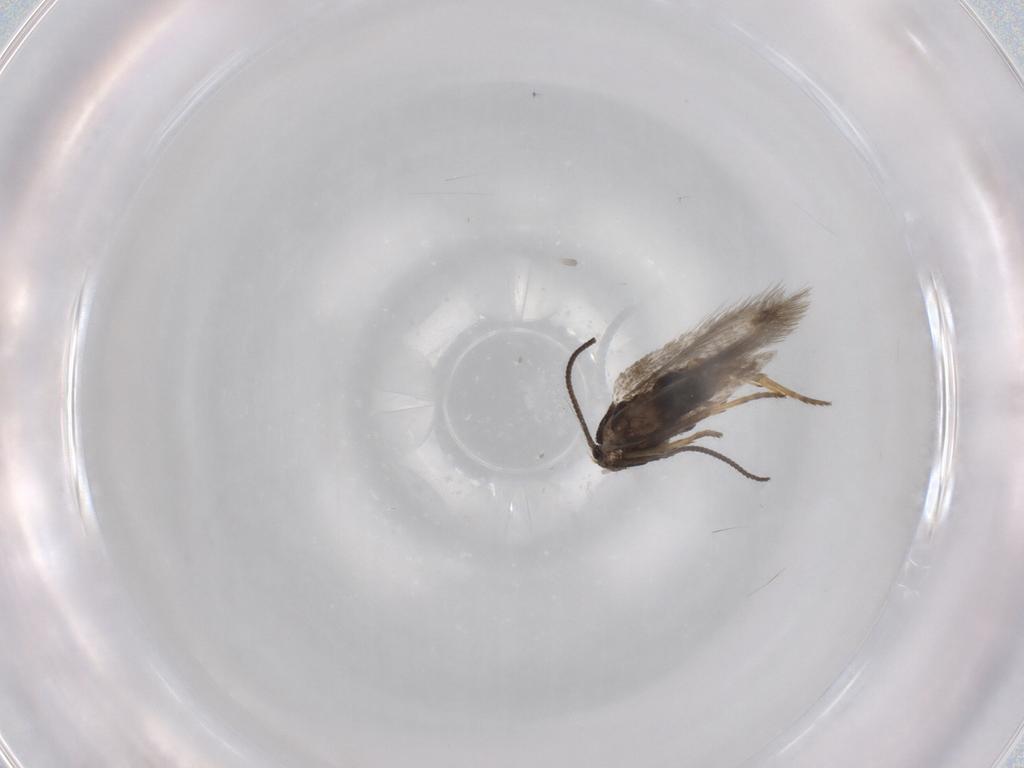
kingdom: Animalia
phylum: Arthropoda
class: Insecta
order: Lepidoptera
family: Nepticulidae
